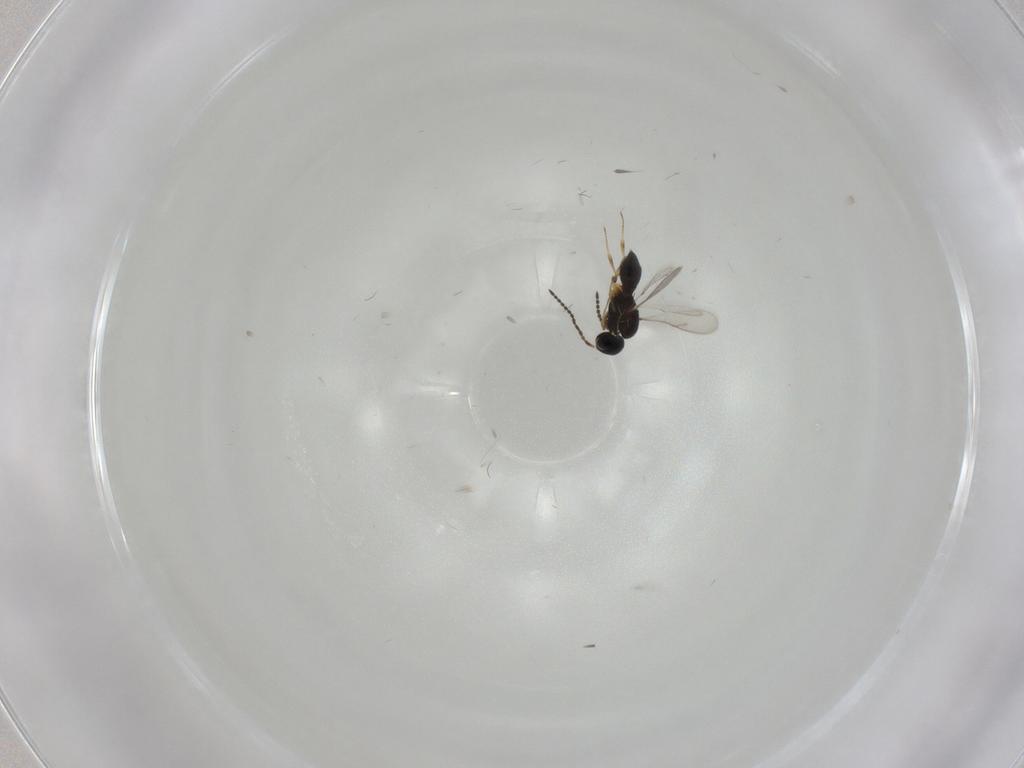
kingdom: Animalia
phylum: Arthropoda
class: Insecta
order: Hymenoptera
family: Scelionidae
